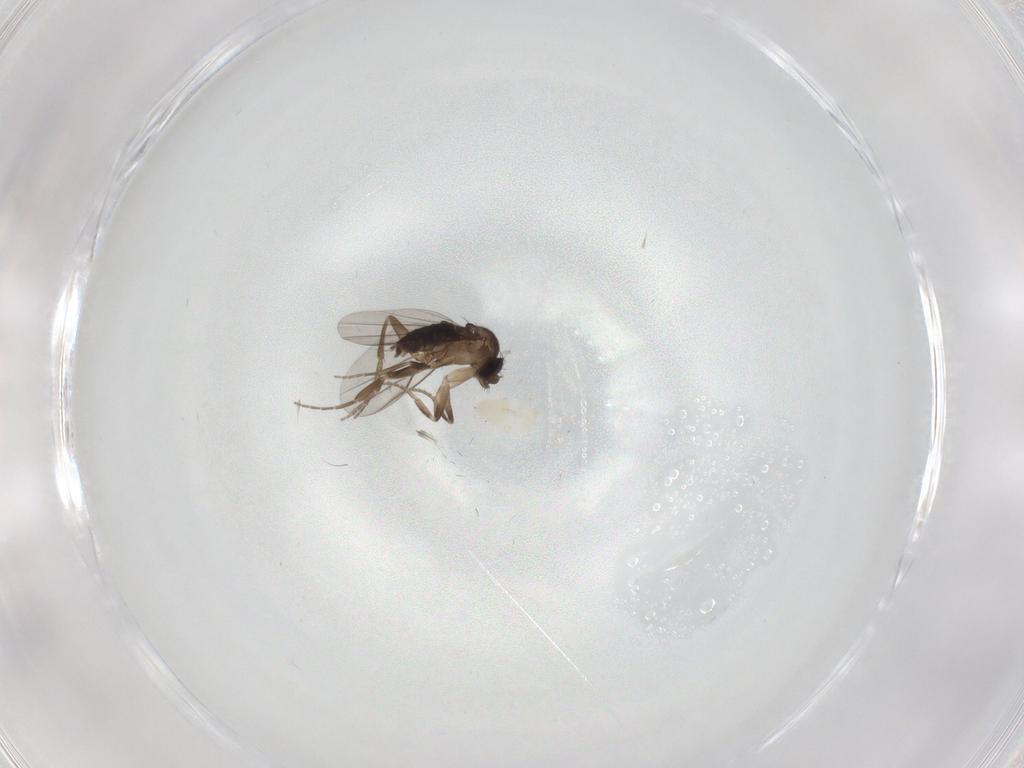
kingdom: Animalia
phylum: Arthropoda
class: Insecta
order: Diptera
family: Phoridae
